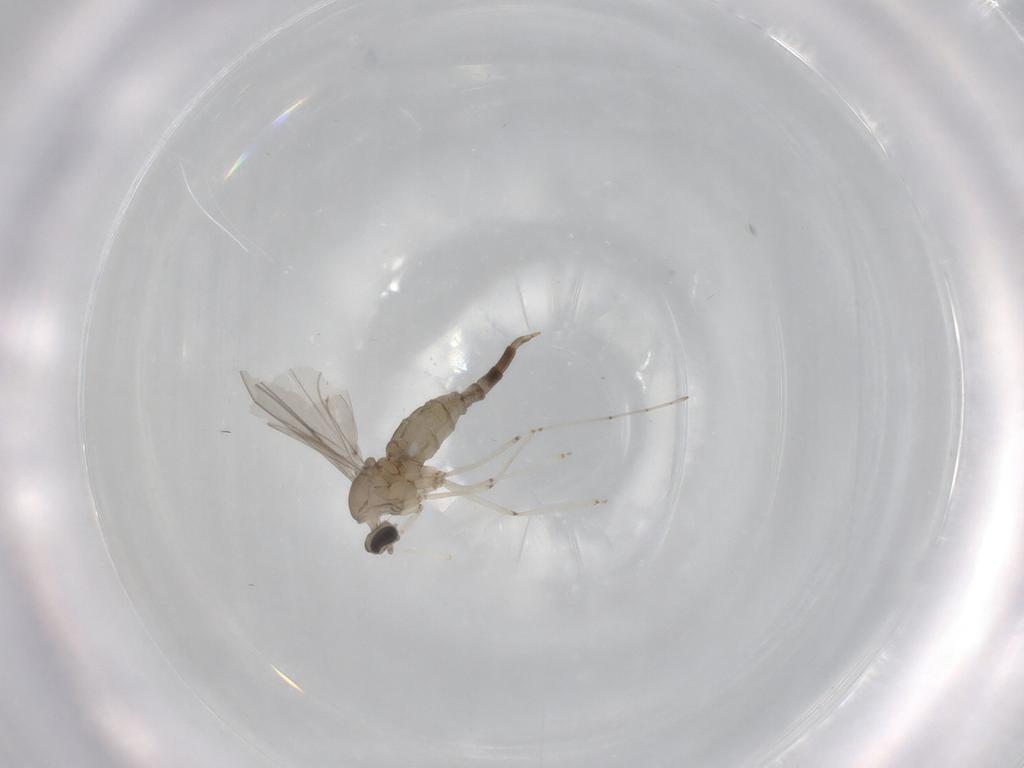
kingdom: Animalia
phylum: Arthropoda
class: Insecta
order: Diptera
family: Cecidomyiidae
